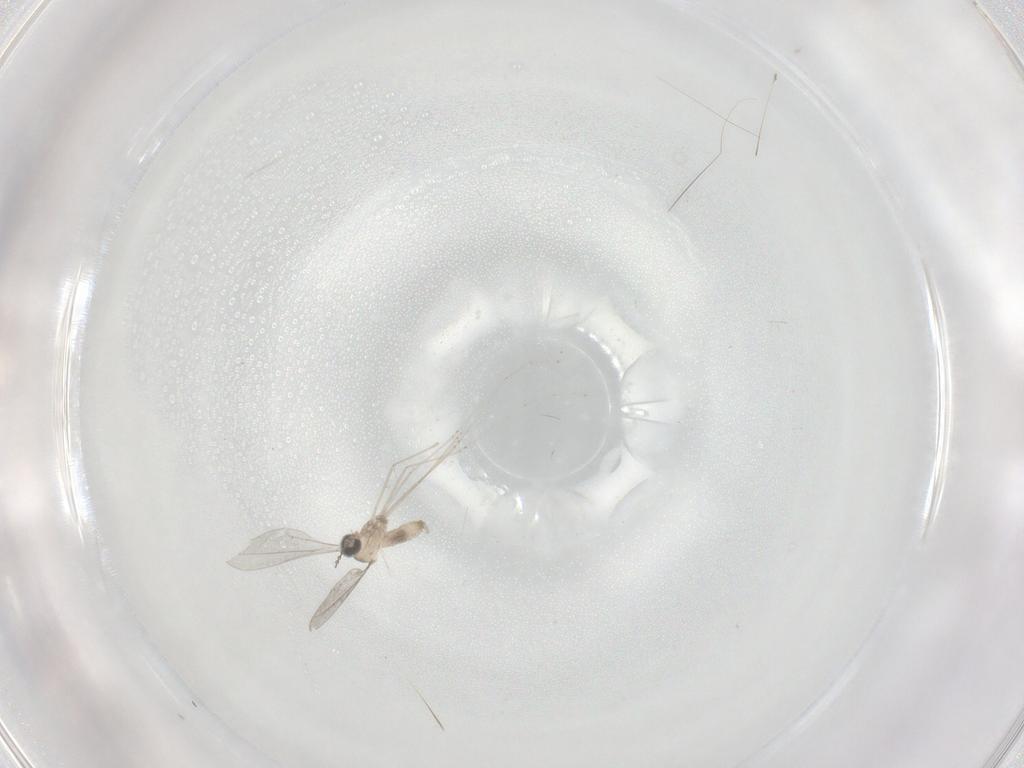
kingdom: Animalia
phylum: Arthropoda
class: Insecta
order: Diptera
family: Cecidomyiidae
